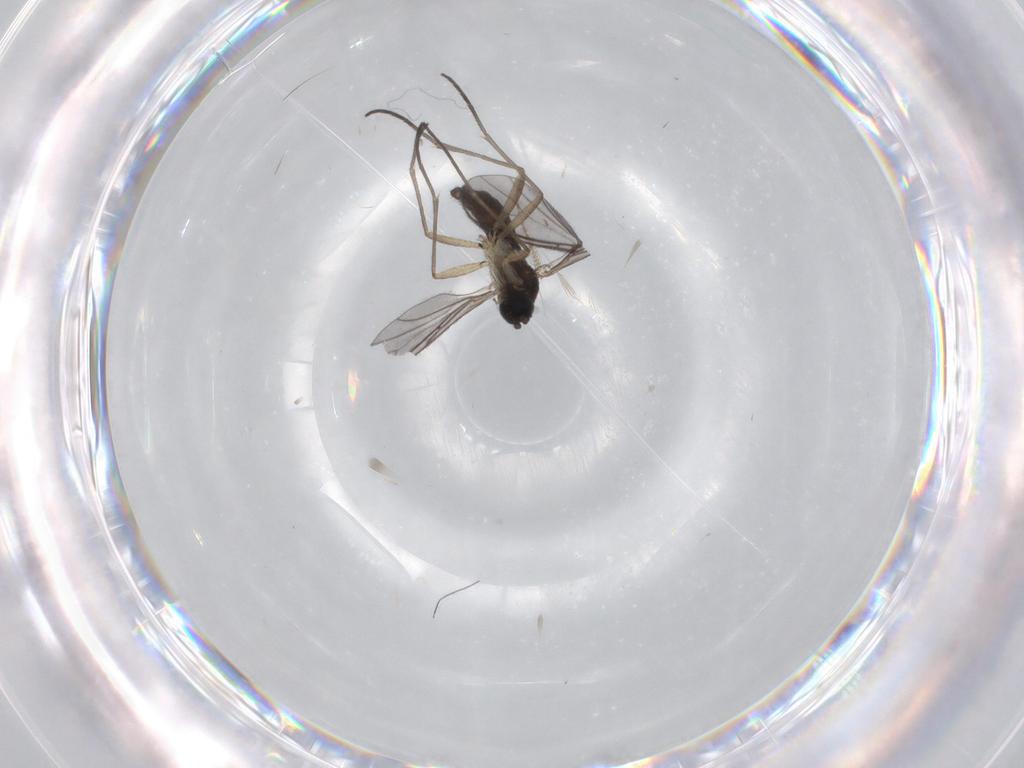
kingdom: Animalia
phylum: Arthropoda
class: Insecta
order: Diptera
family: Sciaridae
